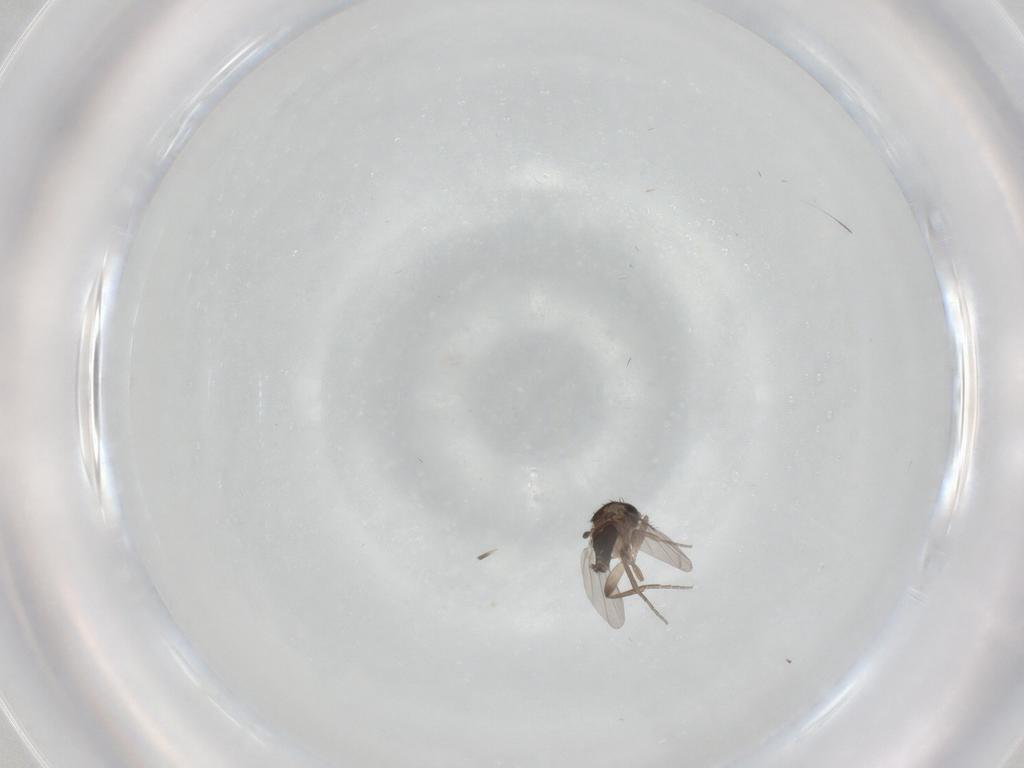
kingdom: Animalia
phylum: Arthropoda
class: Insecta
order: Diptera
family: Phoridae
